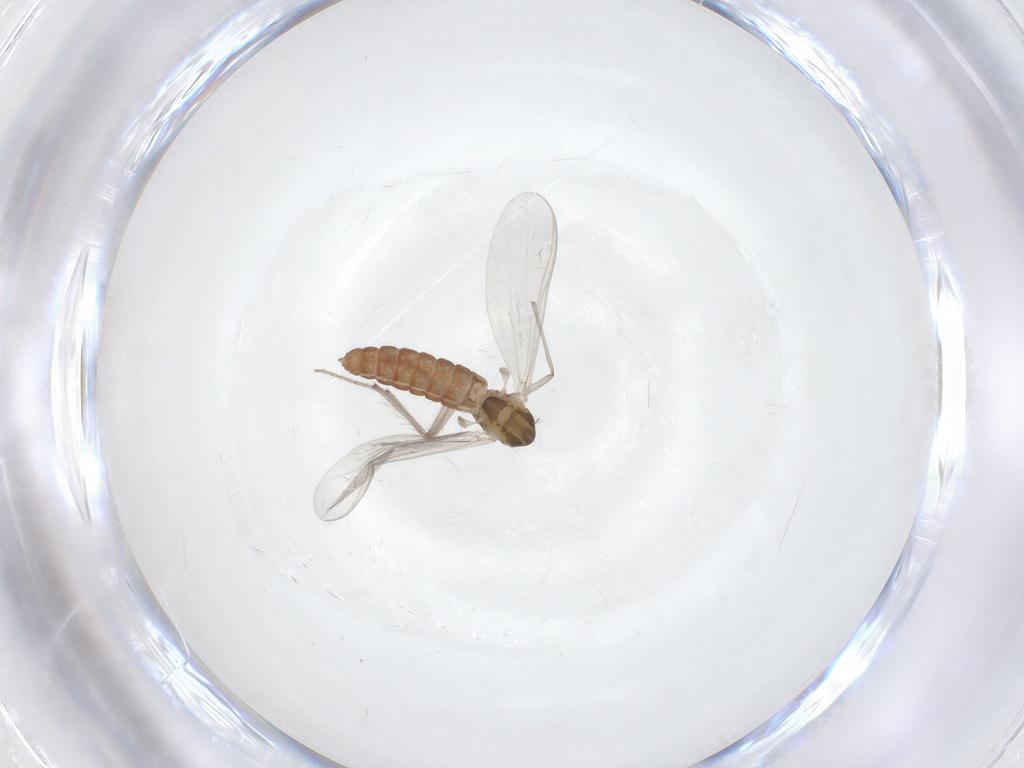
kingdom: Animalia
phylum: Arthropoda
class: Insecta
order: Diptera
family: Chironomidae
